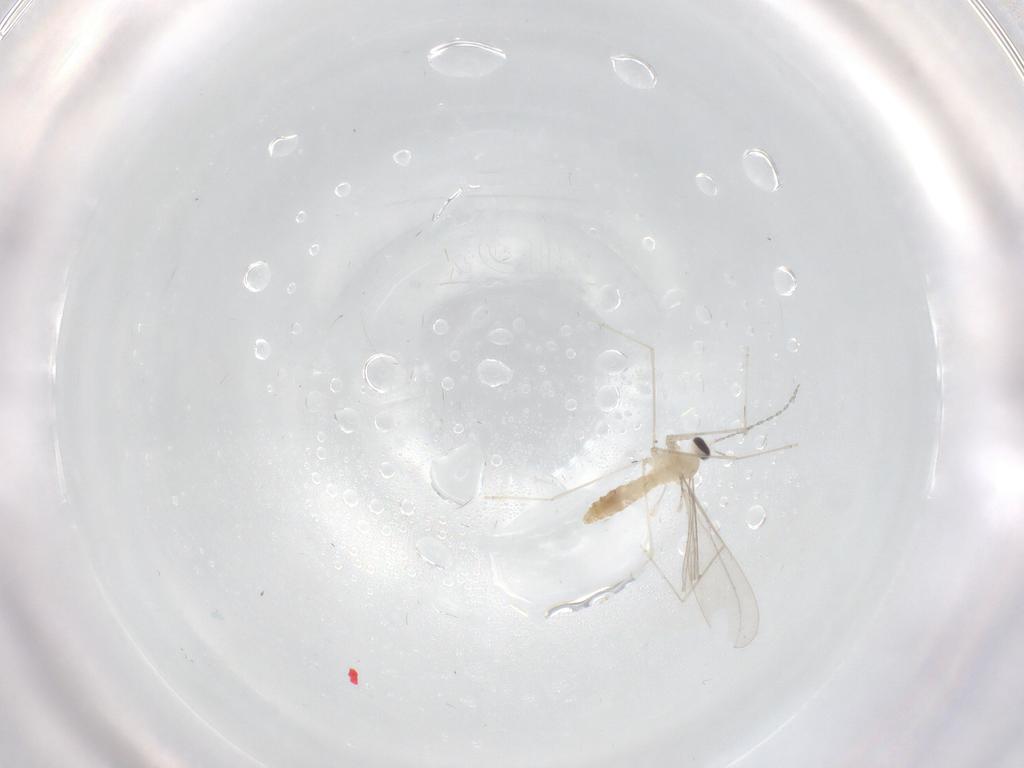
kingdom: Animalia
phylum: Arthropoda
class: Insecta
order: Diptera
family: Cecidomyiidae
